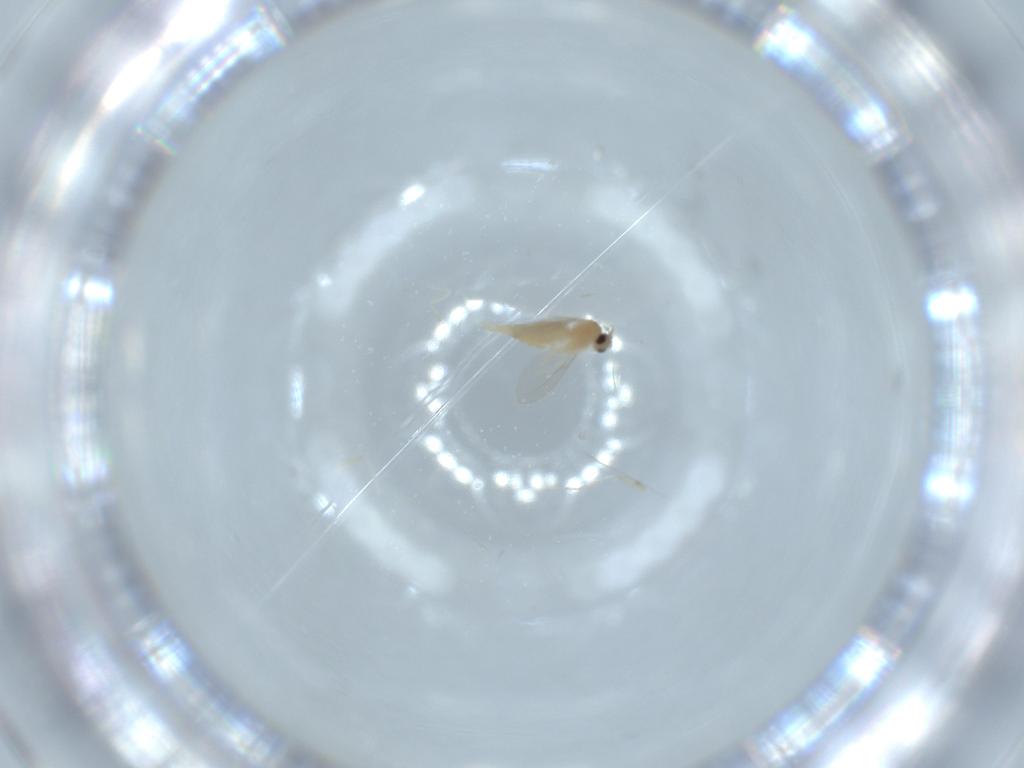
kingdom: Animalia
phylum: Arthropoda
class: Insecta
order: Diptera
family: Cecidomyiidae
